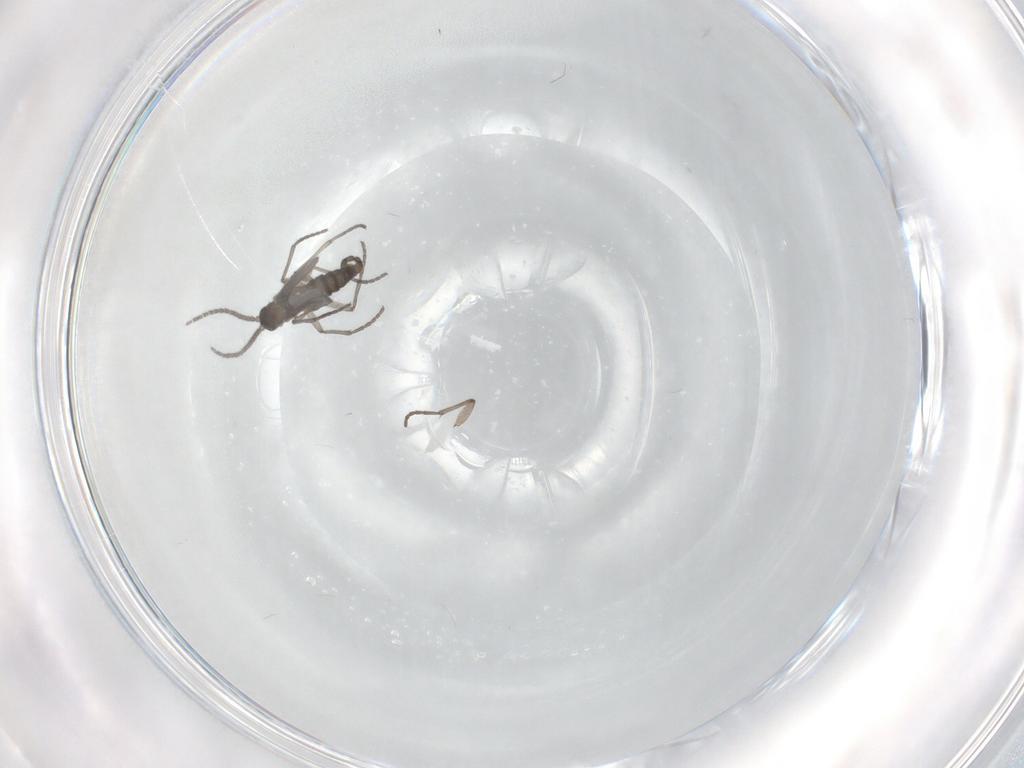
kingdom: Animalia
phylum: Arthropoda
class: Insecta
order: Diptera
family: Sciaridae
